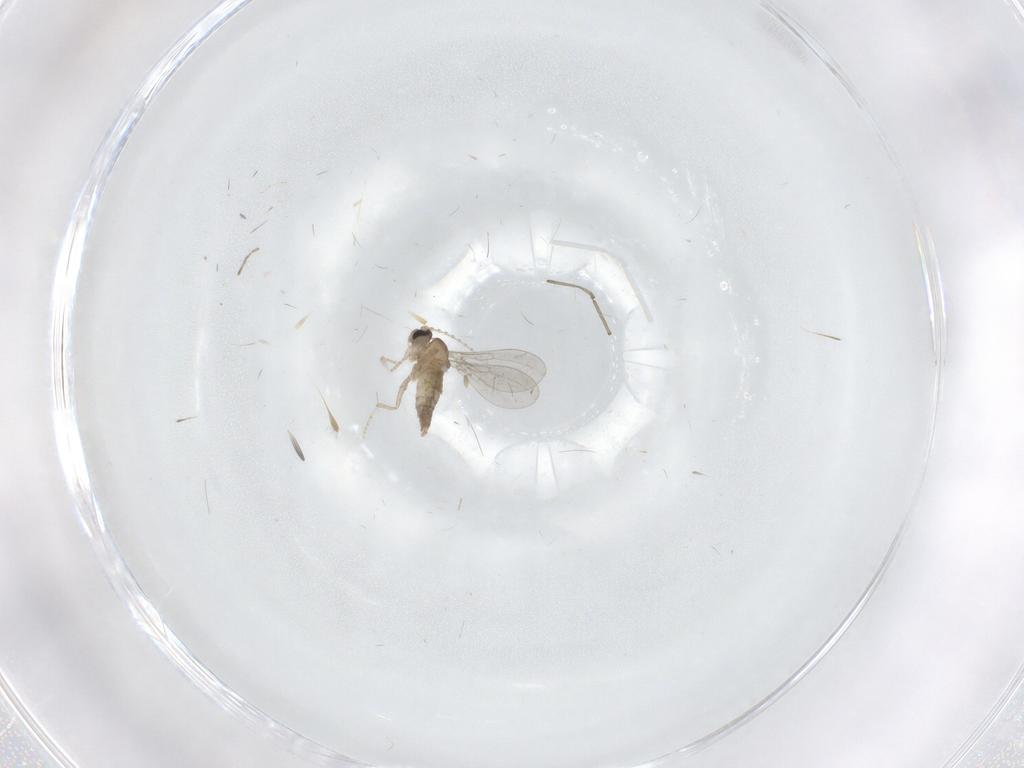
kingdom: Animalia
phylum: Arthropoda
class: Insecta
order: Diptera
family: Cecidomyiidae
